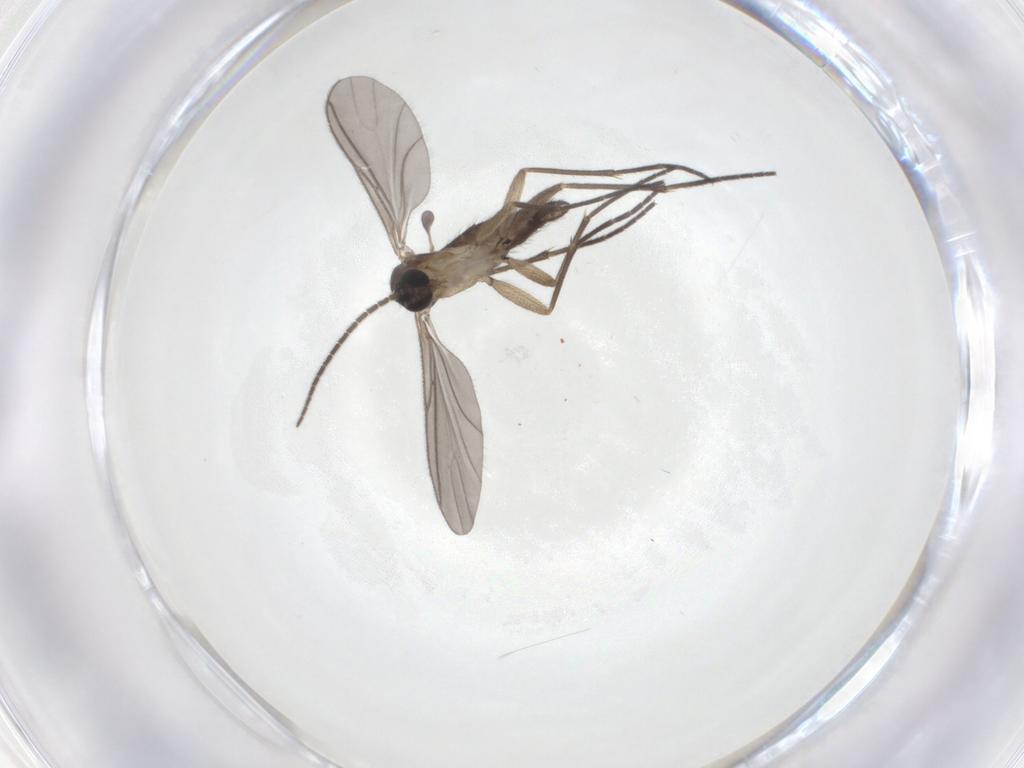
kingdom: Animalia
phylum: Arthropoda
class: Insecta
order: Diptera
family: Sciaridae
